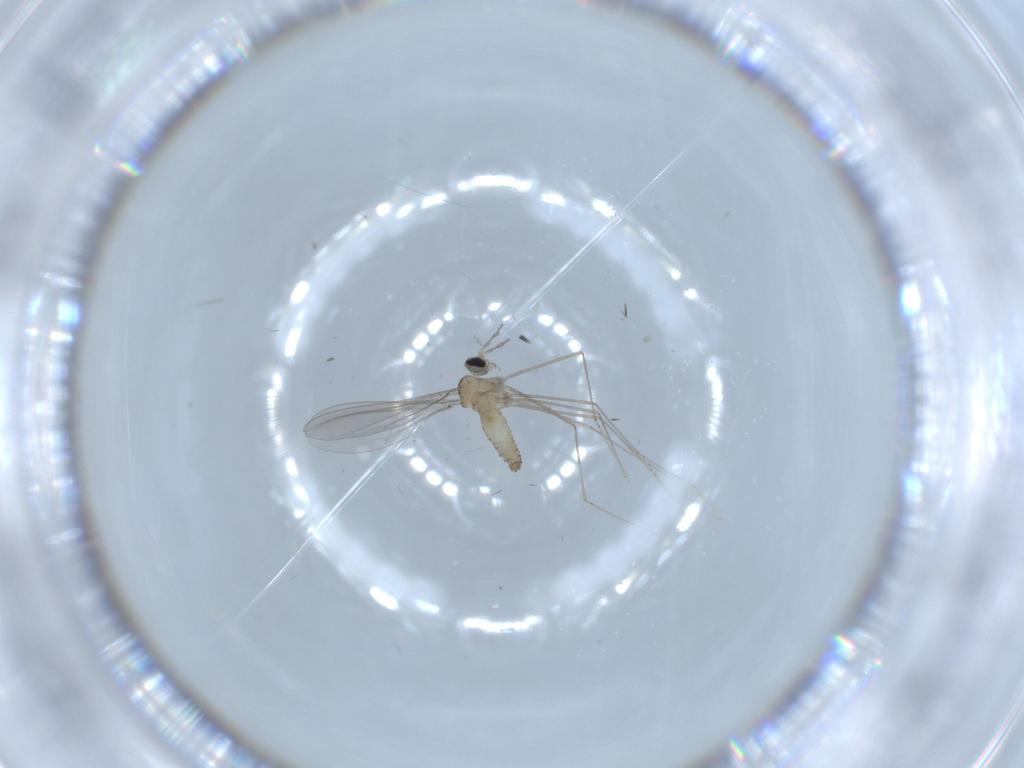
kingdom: Animalia
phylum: Arthropoda
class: Insecta
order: Diptera
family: Cecidomyiidae
